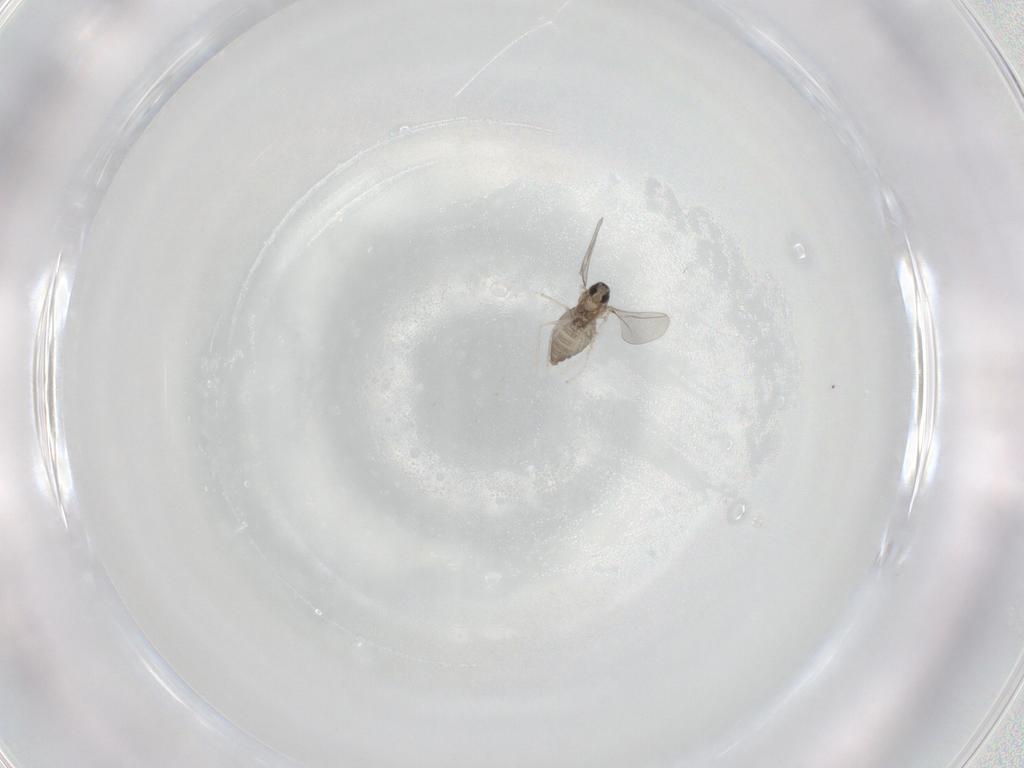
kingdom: Animalia
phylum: Arthropoda
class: Insecta
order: Diptera
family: Cecidomyiidae
